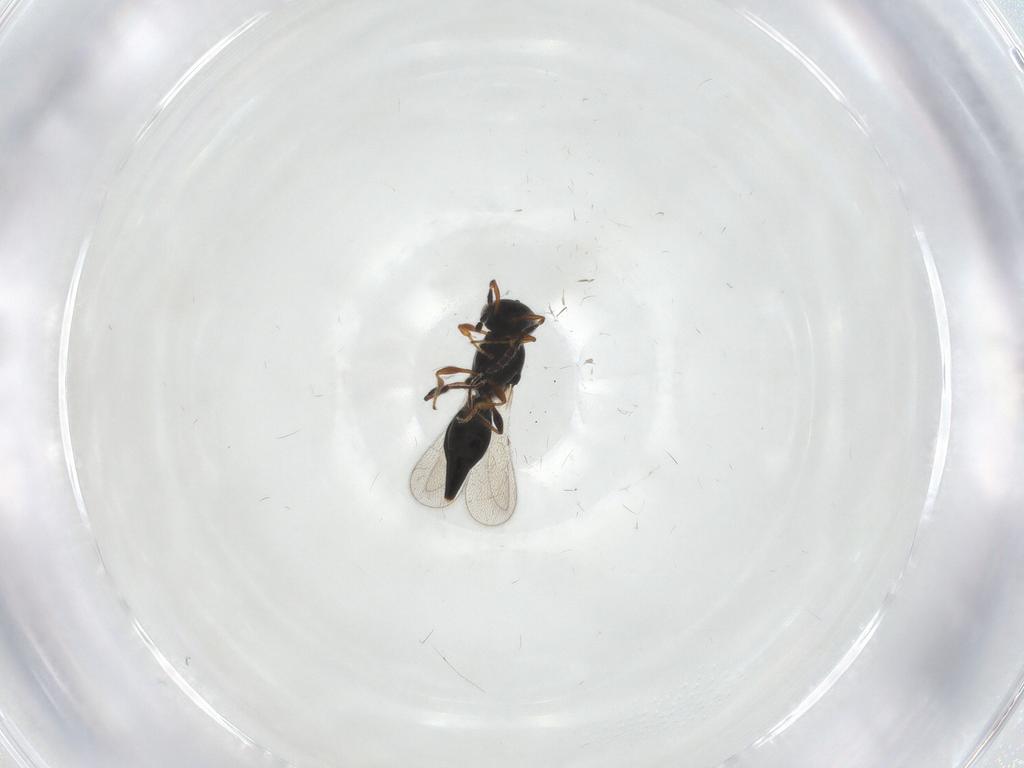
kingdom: Animalia
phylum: Arthropoda
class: Insecta
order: Hymenoptera
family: Platygastridae
